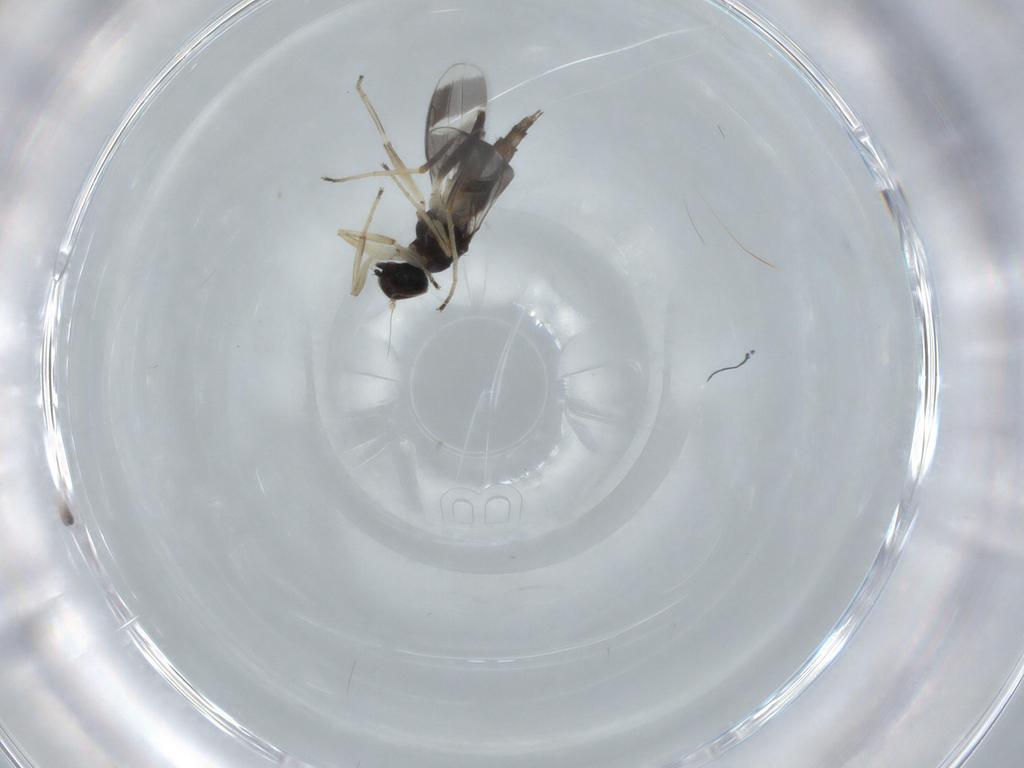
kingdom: Animalia
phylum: Arthropoda
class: Insecta
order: Diptera
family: Hybotidae
